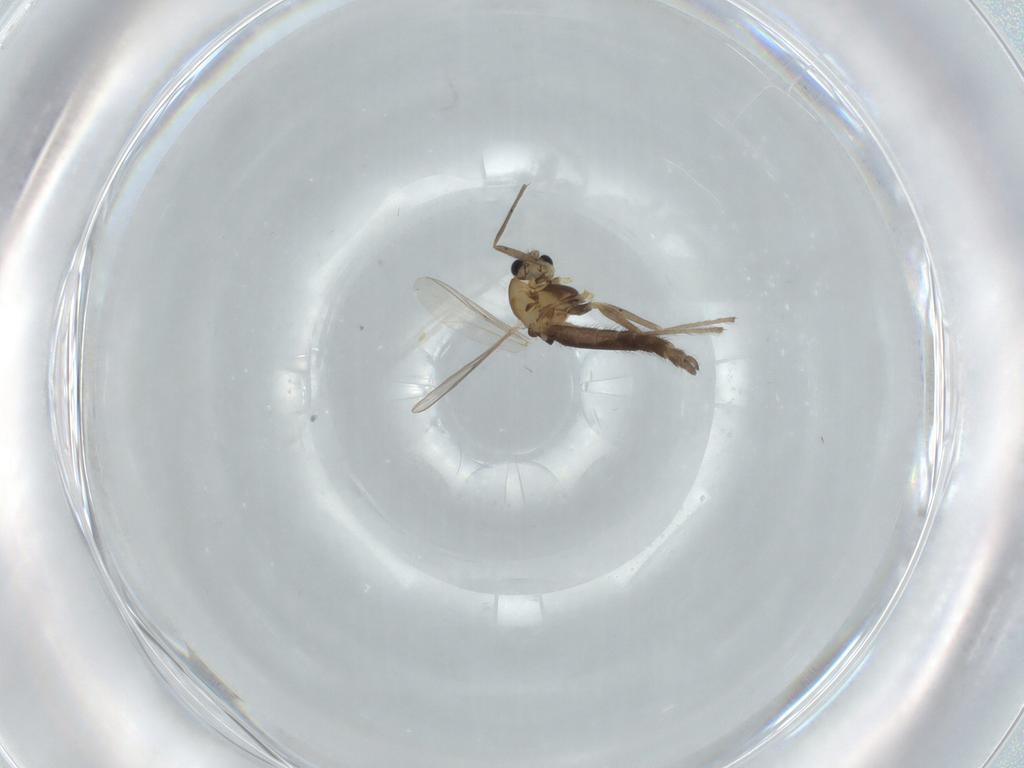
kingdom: Animalia
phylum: Arthropoda
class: Insecta
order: Diptera
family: Chironomidae
